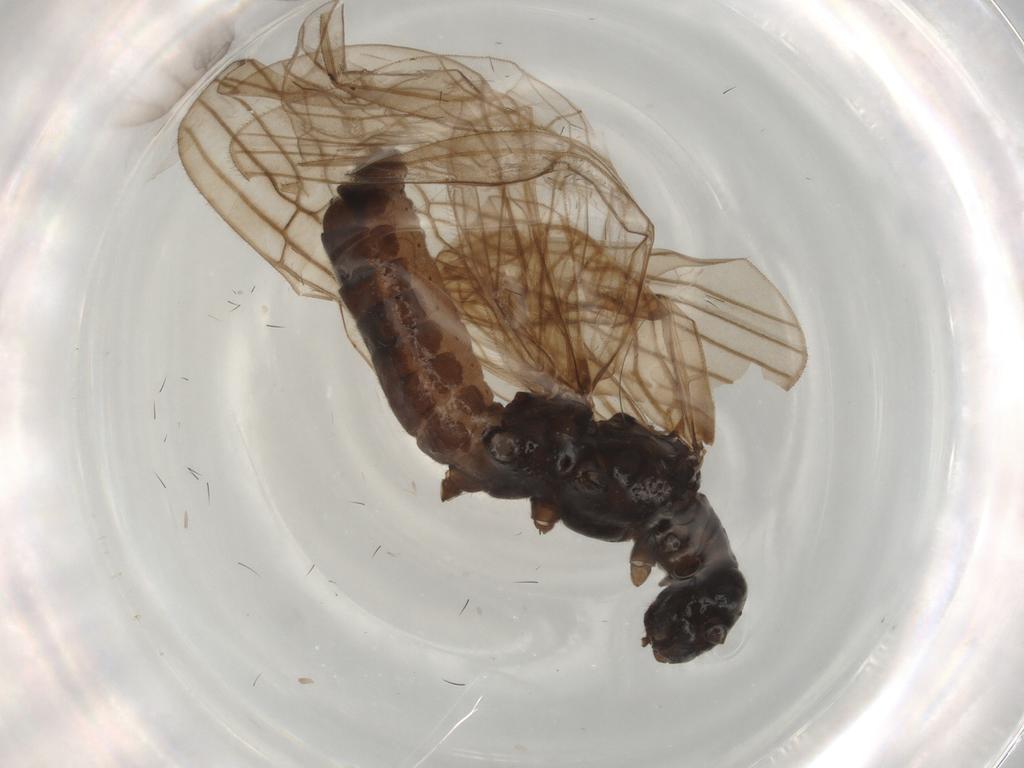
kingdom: Animalia
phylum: Arthropoda
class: Insecta
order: Plecoptera
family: Leuctridae
